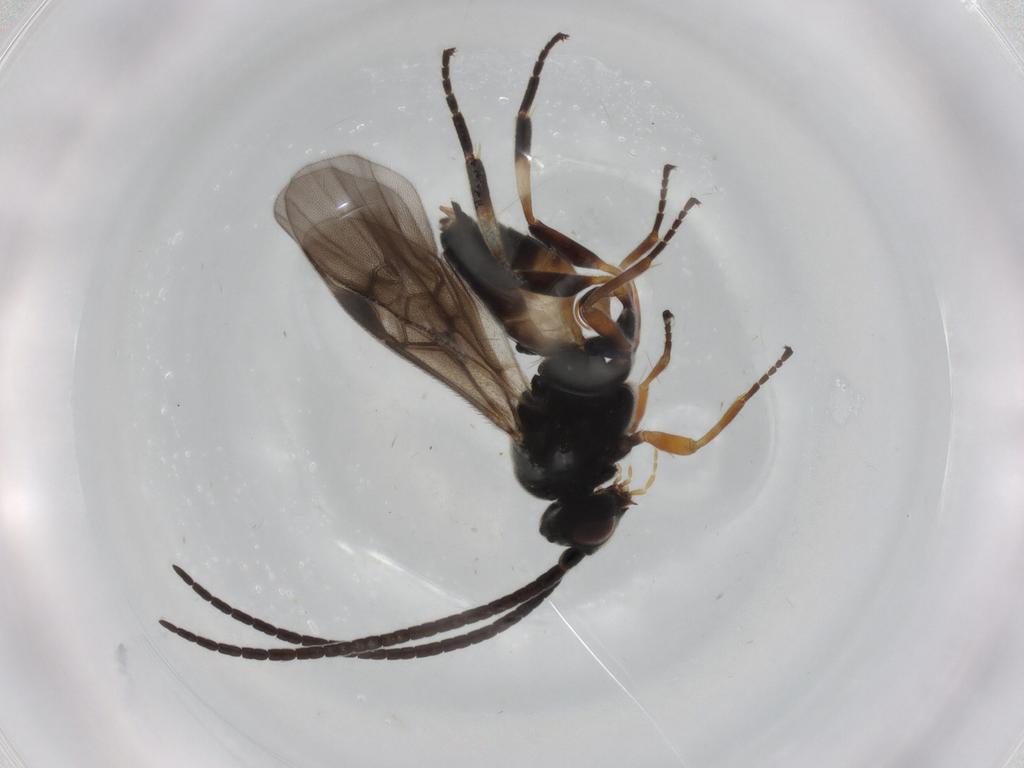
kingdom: Animalia
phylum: Arthropoda
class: Insecta
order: Hymenoptera
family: Braconidae
